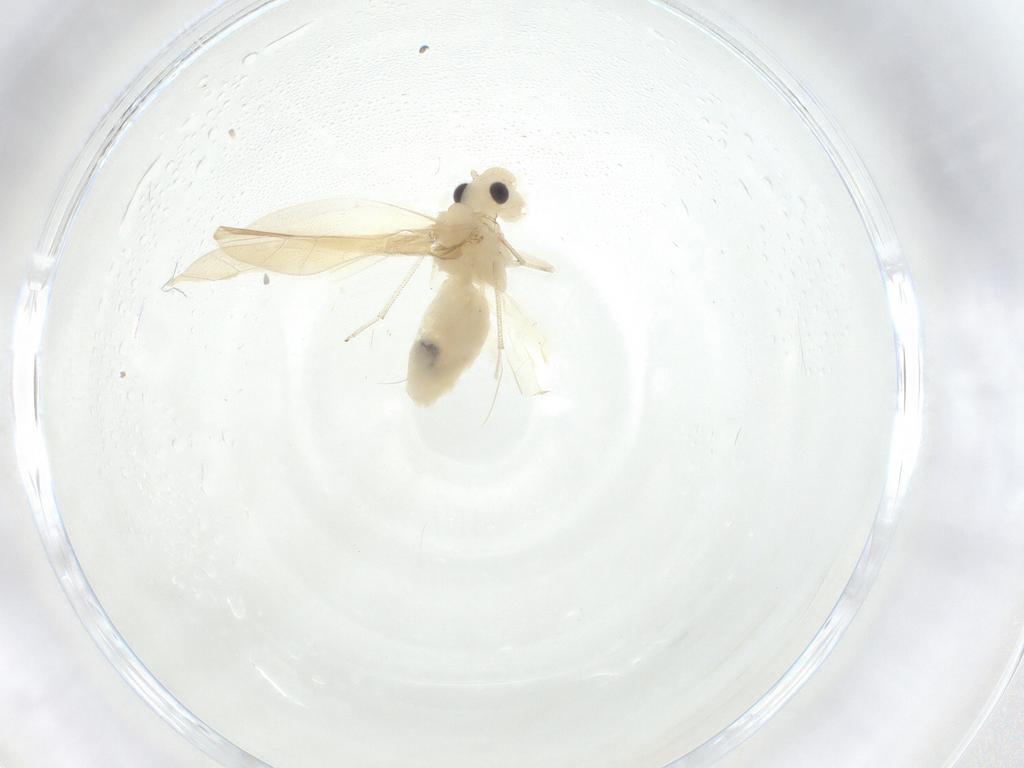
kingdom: Animalia
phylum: Arthropoda
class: Insecta
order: Psocodea
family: Caeciliusidae
